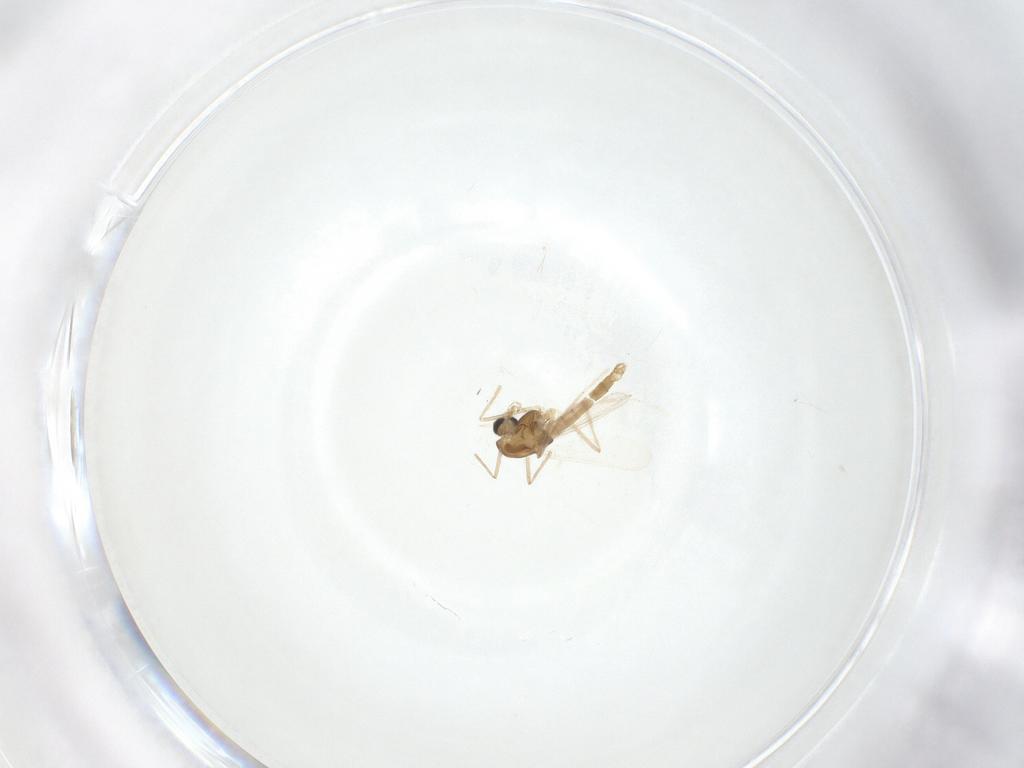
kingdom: Animalia
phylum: Arthropoda
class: Insecta
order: Diptera
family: Chironomidae
